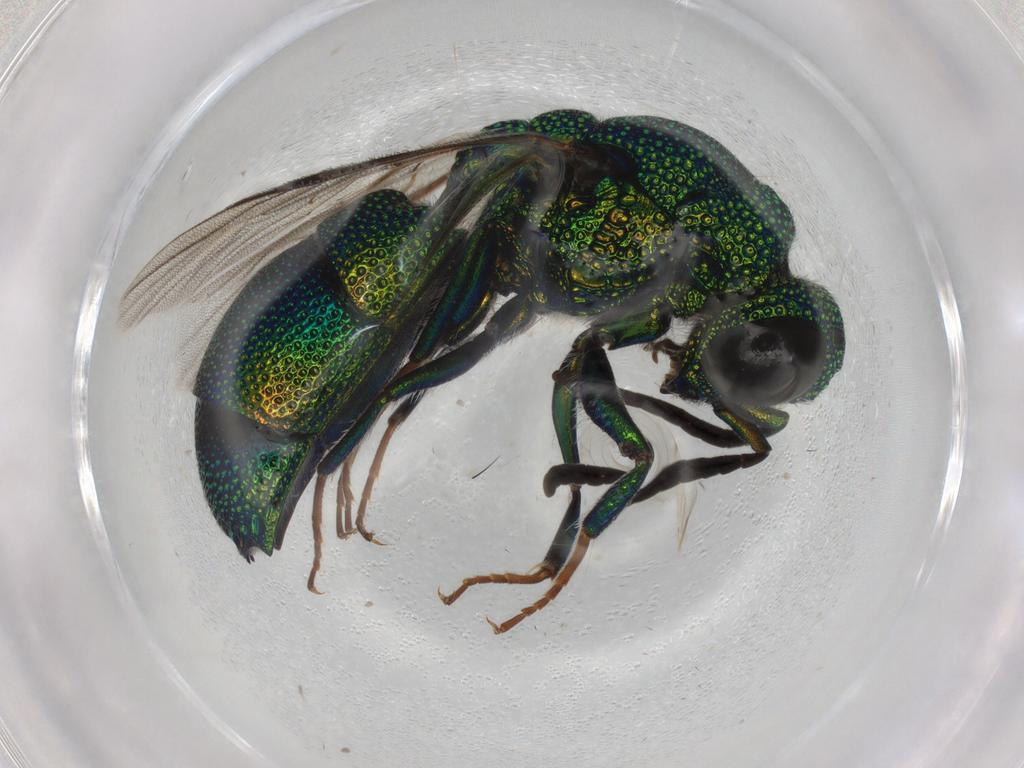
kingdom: Animalia
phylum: Arthropoda
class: Insecta
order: Hymenoptera
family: Chrysididae
